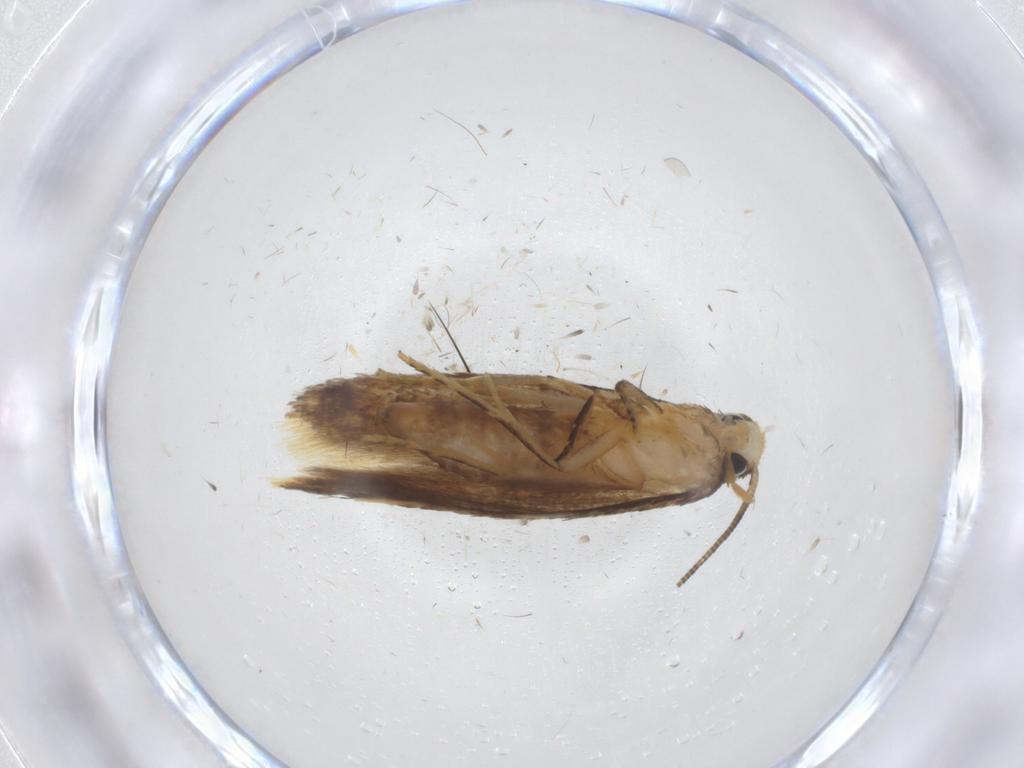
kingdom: Animalia
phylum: Arthropoda
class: Insecta
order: Lepidoptera
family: Tineidae
